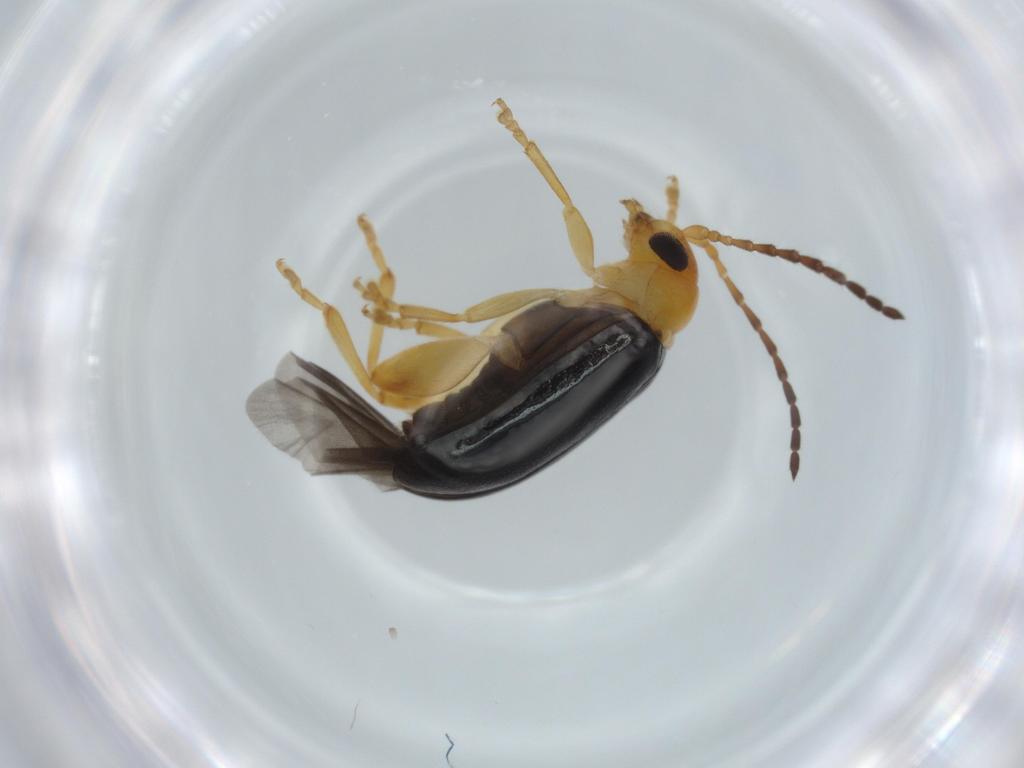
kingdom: Animalia
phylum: Arthropoda
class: Insecta
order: Coleoptera
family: Chrysomelidae
